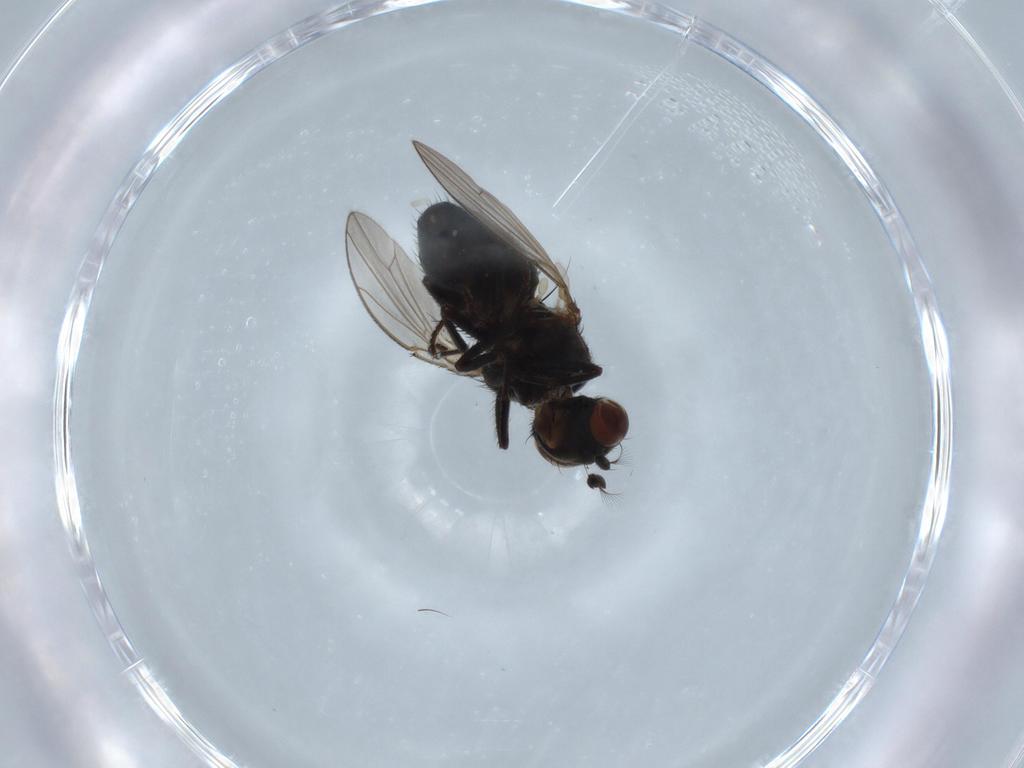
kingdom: Animalia
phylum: Arthropoda
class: Insecta
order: Diptera
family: Ephydridae
